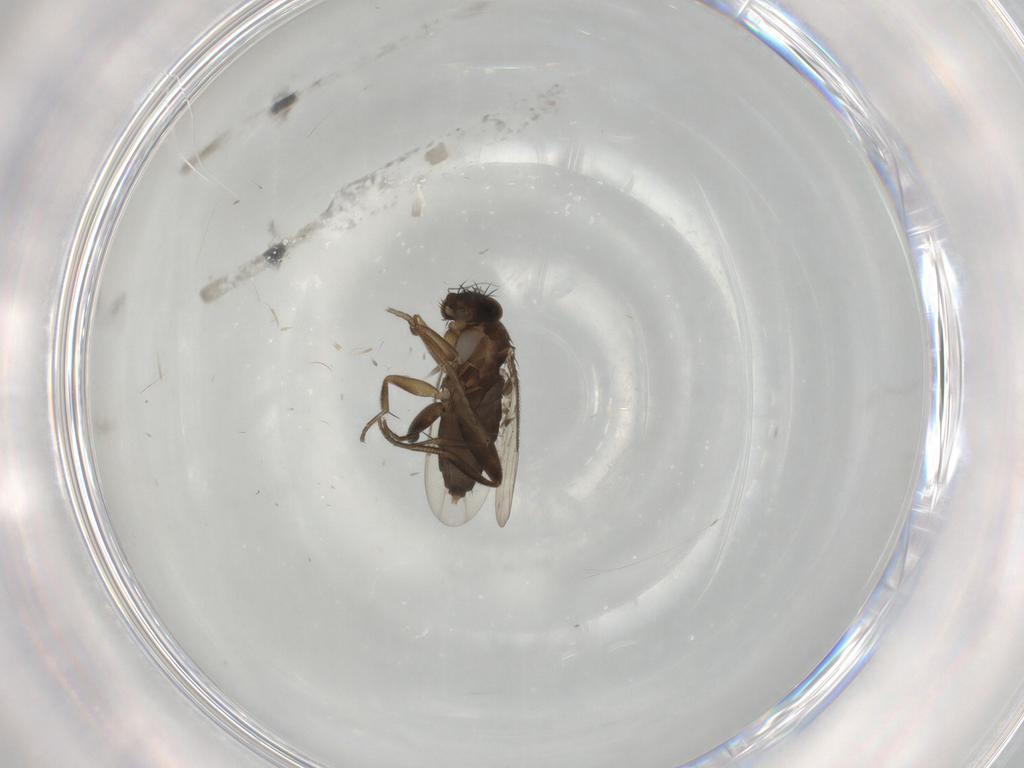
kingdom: Animalia
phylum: Arthropoda
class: Insecta
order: Diptera
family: Phoridae
